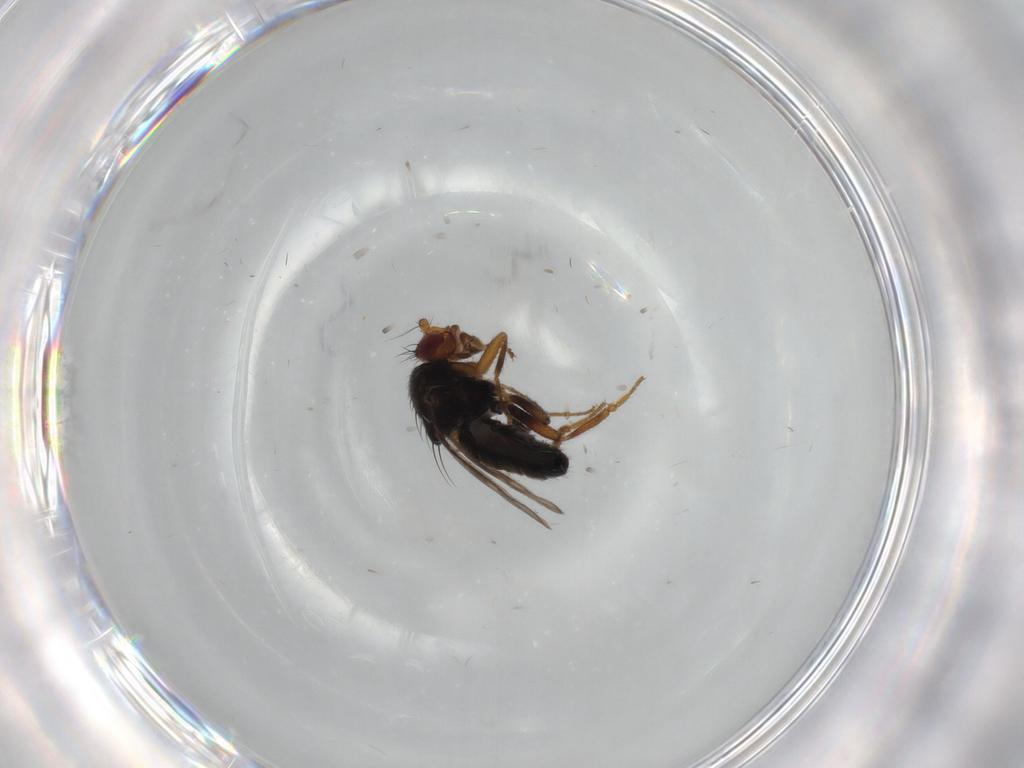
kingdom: Animalia
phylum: Arthropoda
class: Insecta
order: Diptera
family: Sphaeroceridae
